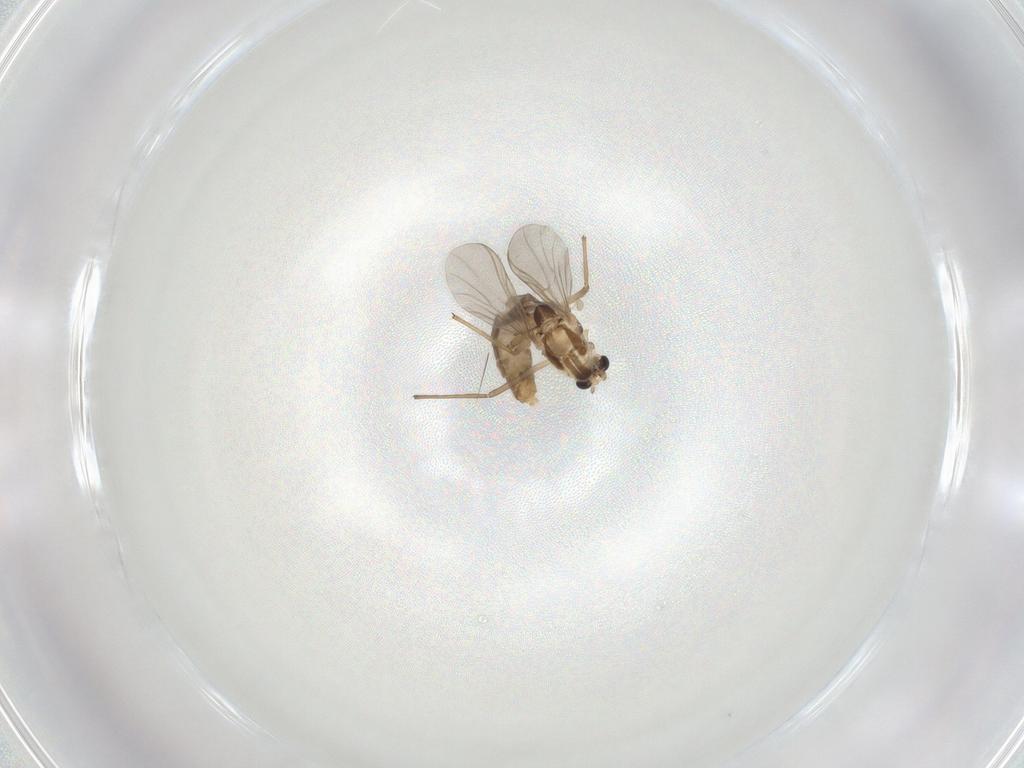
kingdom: Animalia
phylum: Arthropoda
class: Insecta
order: Diptera
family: Chironomidae
